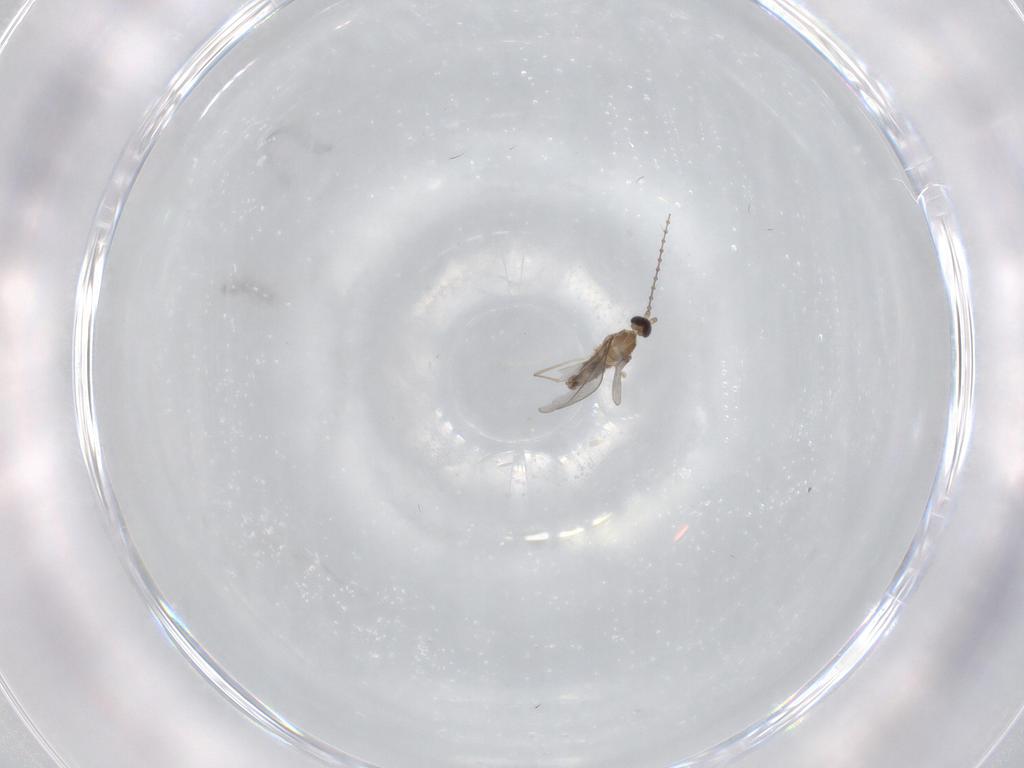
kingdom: Animalia
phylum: Arthropoda
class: Insecta
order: Diptera
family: Cecidomyiidae
